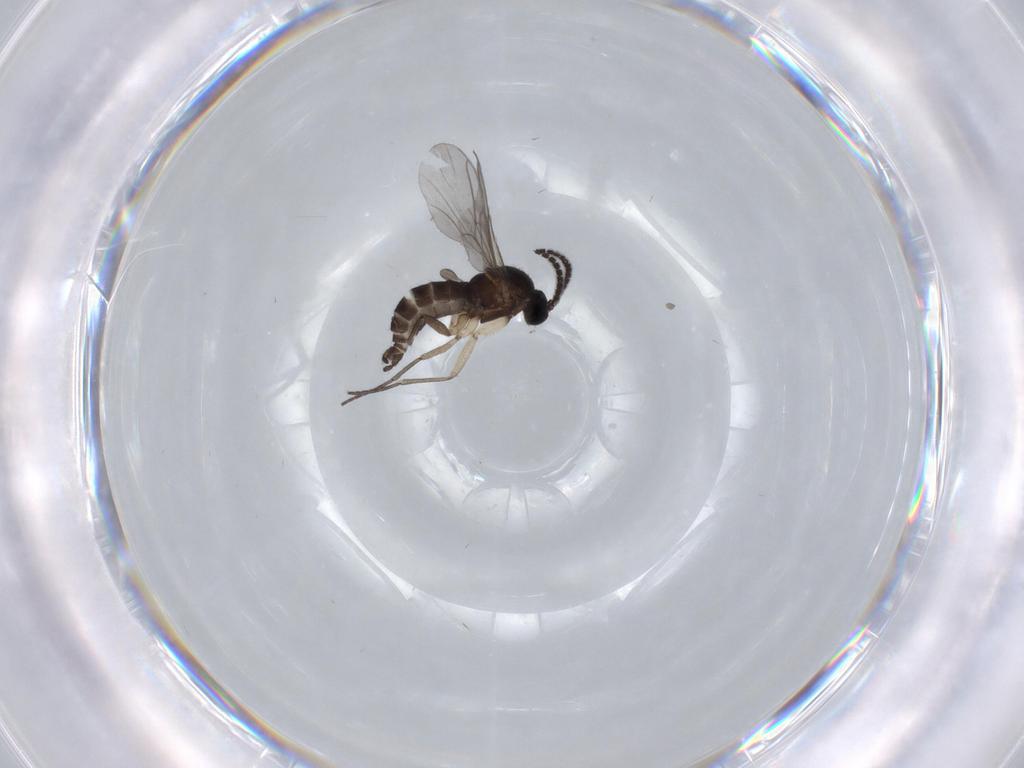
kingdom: Animalia
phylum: Arthropoda
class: Insecta
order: Diptera
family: Sciaridae
